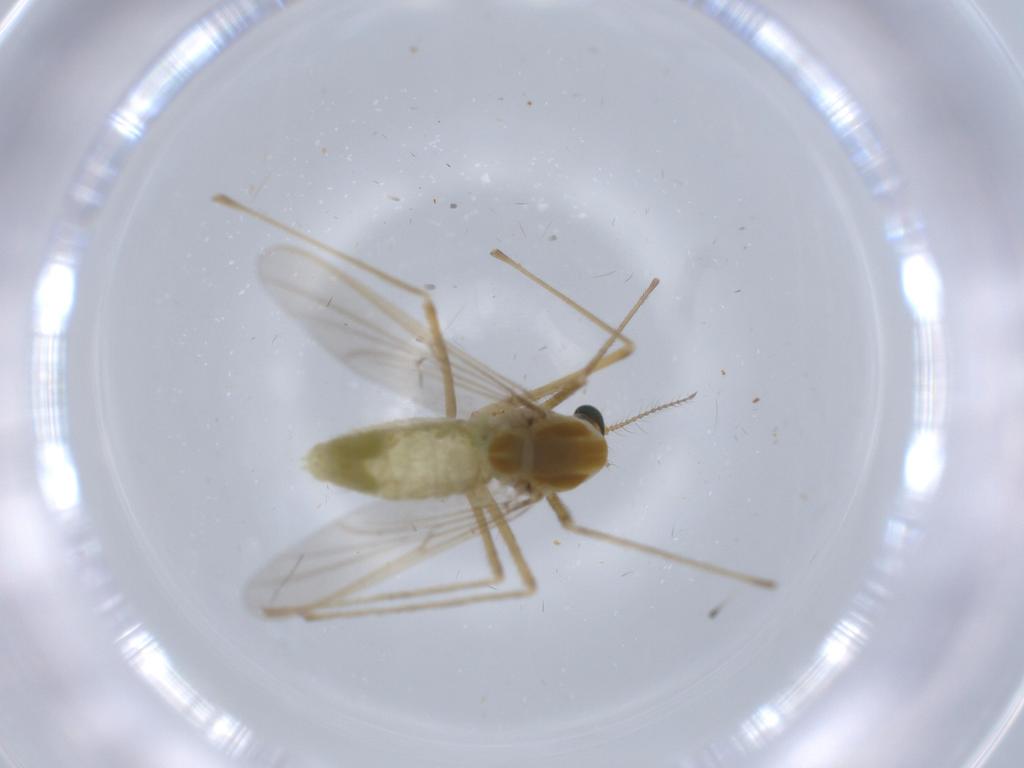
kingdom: Animalia
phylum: Arthropoda
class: Insecta
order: Diptera
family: Chironomidae
